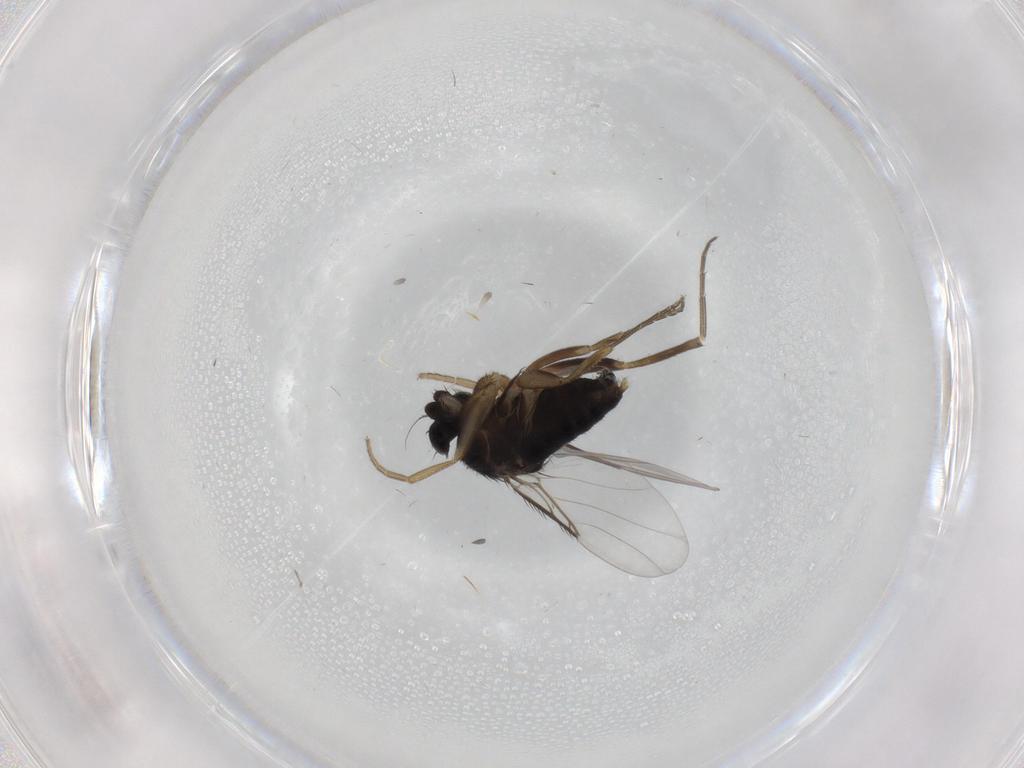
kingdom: Animalia
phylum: Arthropoda
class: Insecta
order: Diptera
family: Phoridae
